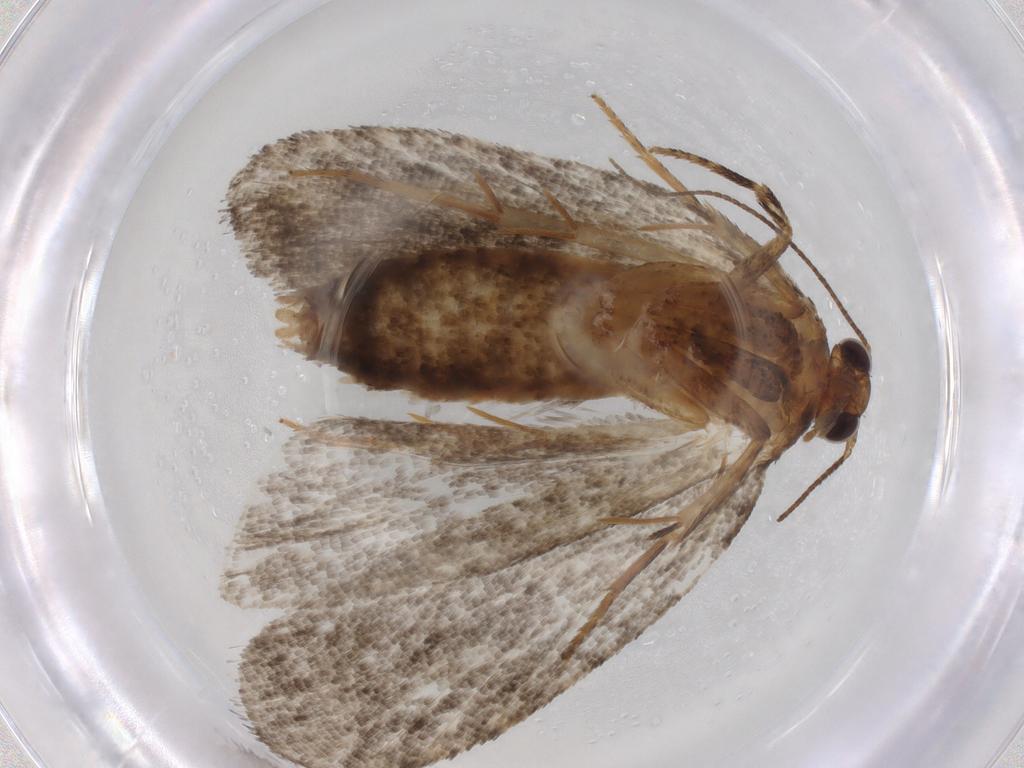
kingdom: Animalia
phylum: Arthropoda
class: Insecta
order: Lepidoptera
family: Tortricidae
